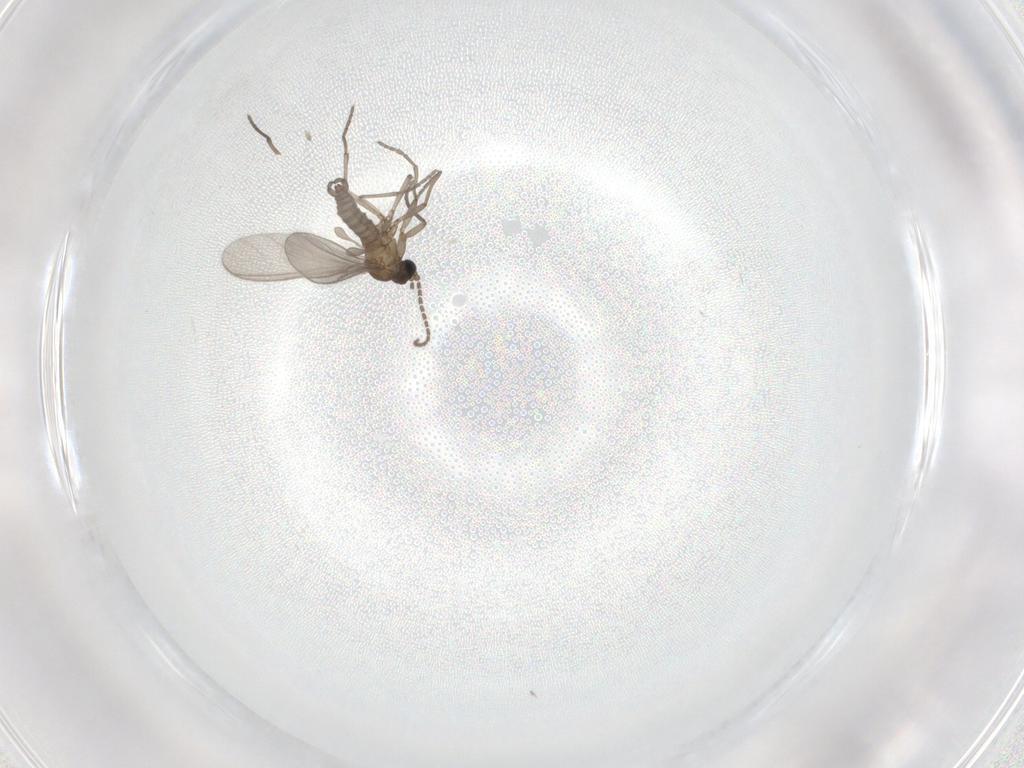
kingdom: Animalia
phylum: Arthropoda
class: Insecta
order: Diptera
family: Sciaridae
